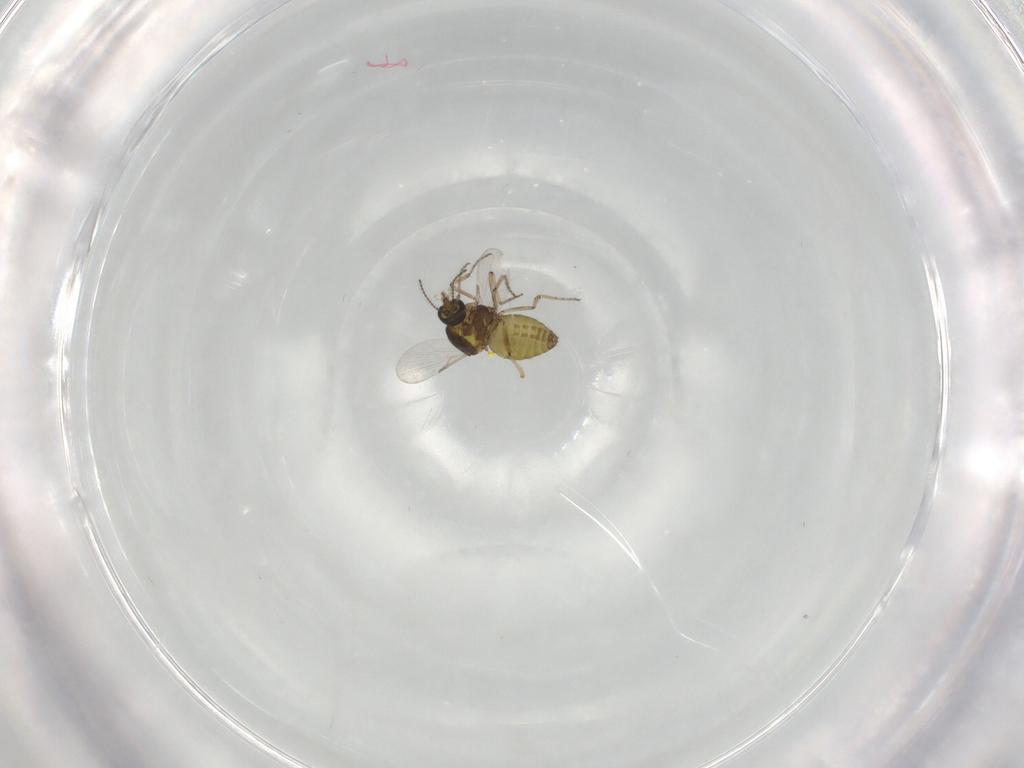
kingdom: Animalia
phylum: Arthropoda
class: Insecta
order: Diptera
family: Ceratopogonidae
